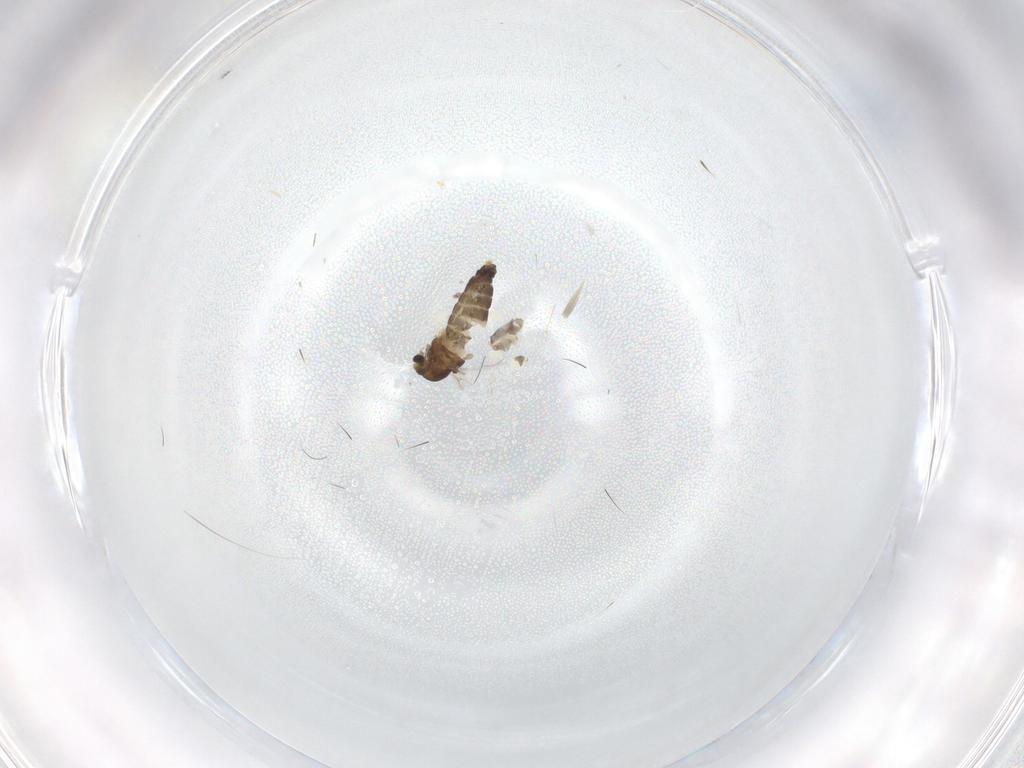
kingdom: Animalia
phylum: Arthropoda
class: Insecta
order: Diptera
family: Chironomidae
